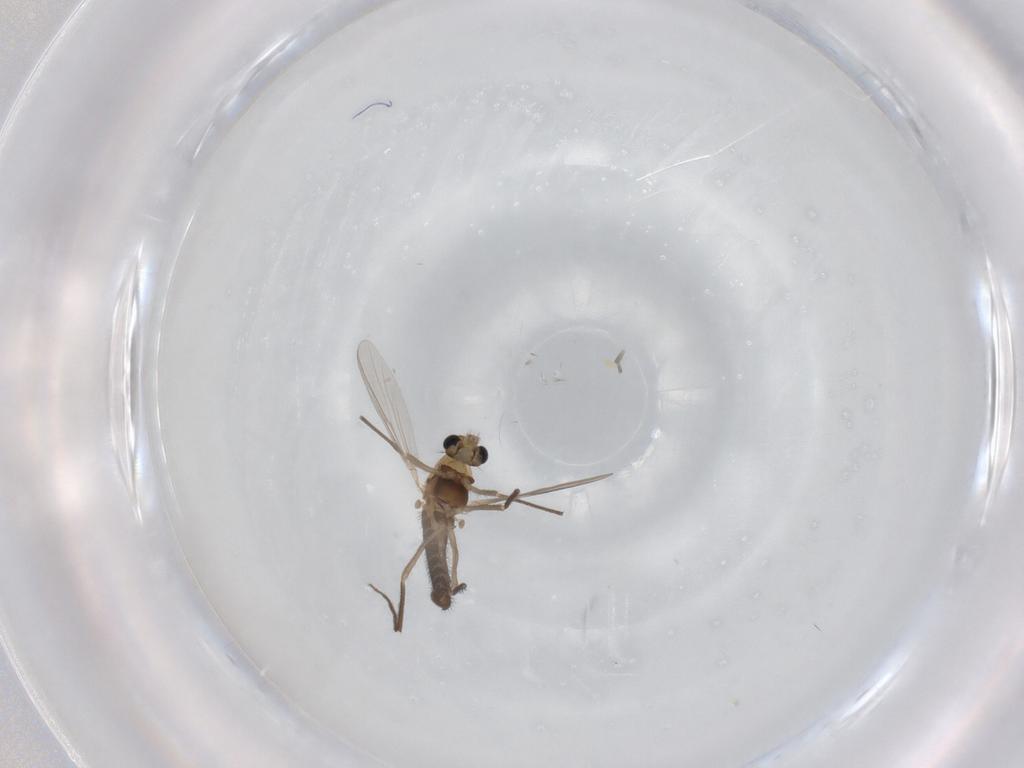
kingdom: Animalia
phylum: Arthropoda
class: Insecta
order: Diptera
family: Chironomidae
